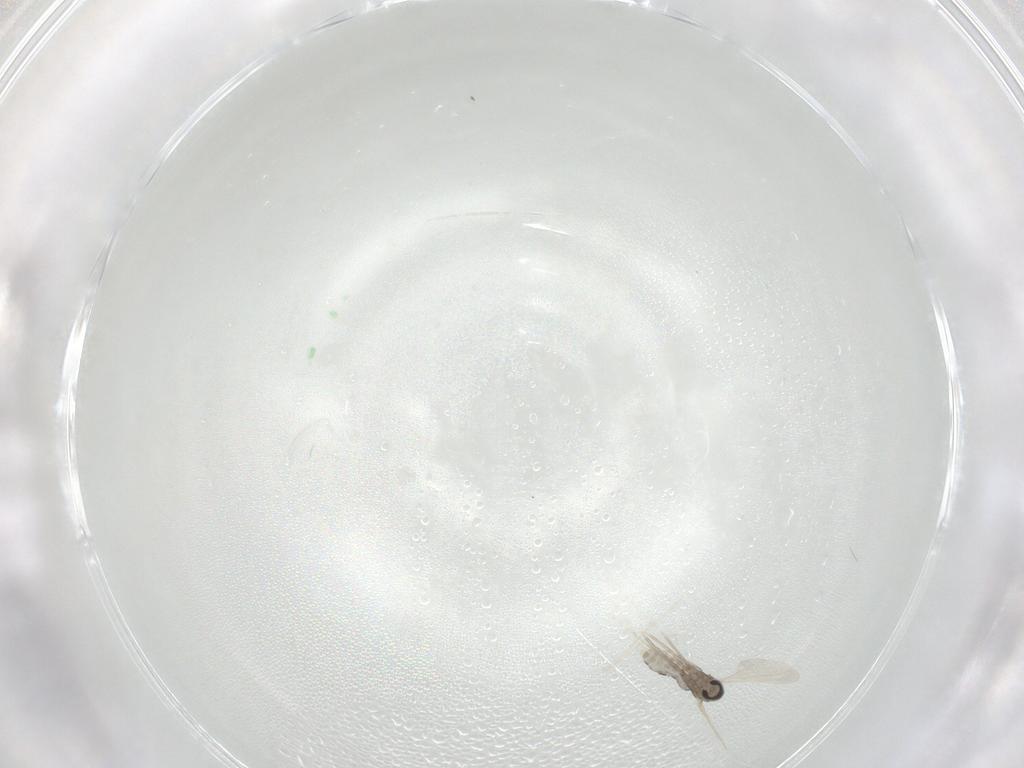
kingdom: Animalia
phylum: Arthropoda
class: Insecta
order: Diptera
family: Cecidomyiidae
